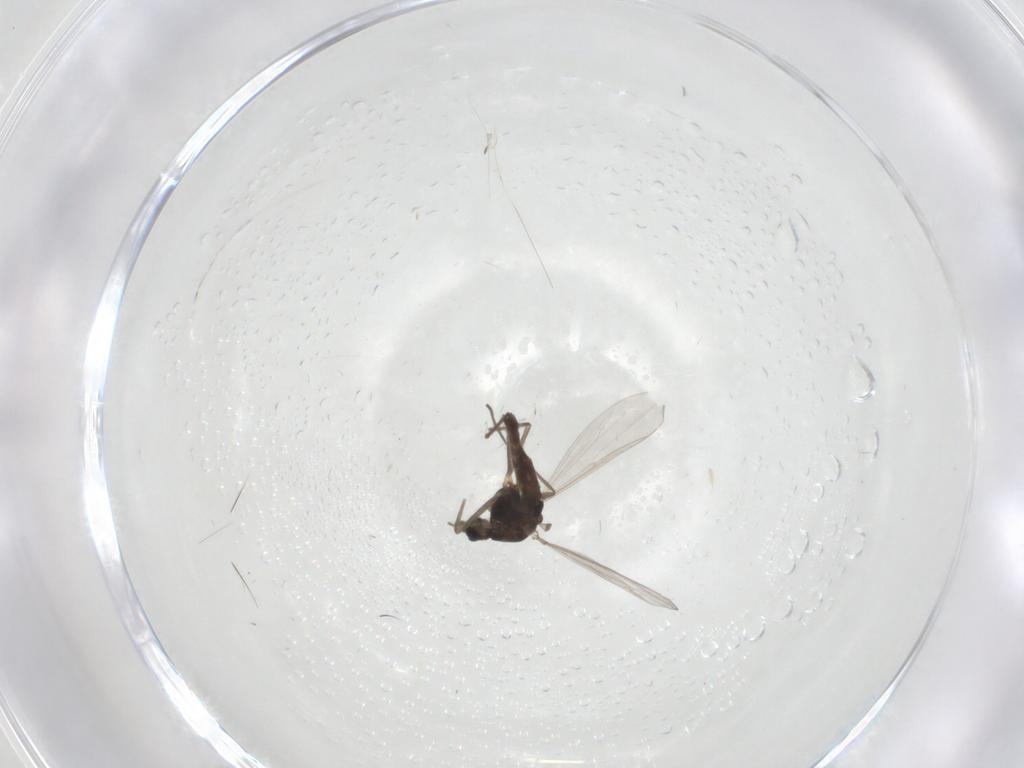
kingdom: Animalia
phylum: Arthropoda
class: Insecta
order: Diptera
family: Chironomidae
